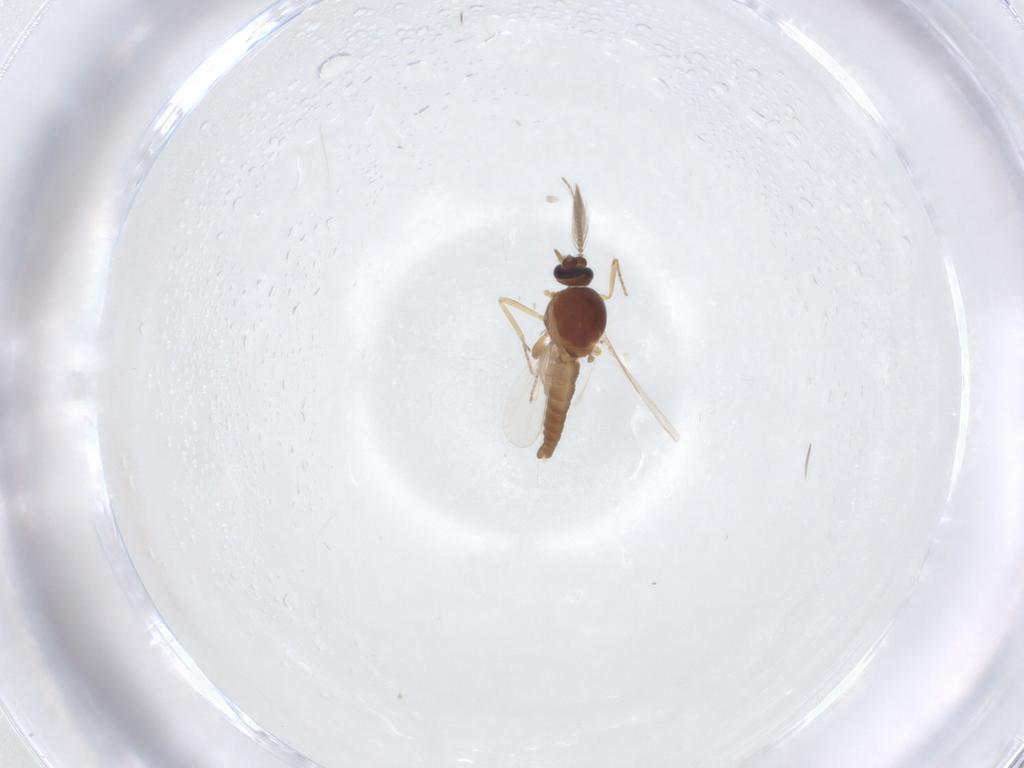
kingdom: Animalia
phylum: Arthropoda
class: Insecta
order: Diptera
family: Ceratopogonidae
